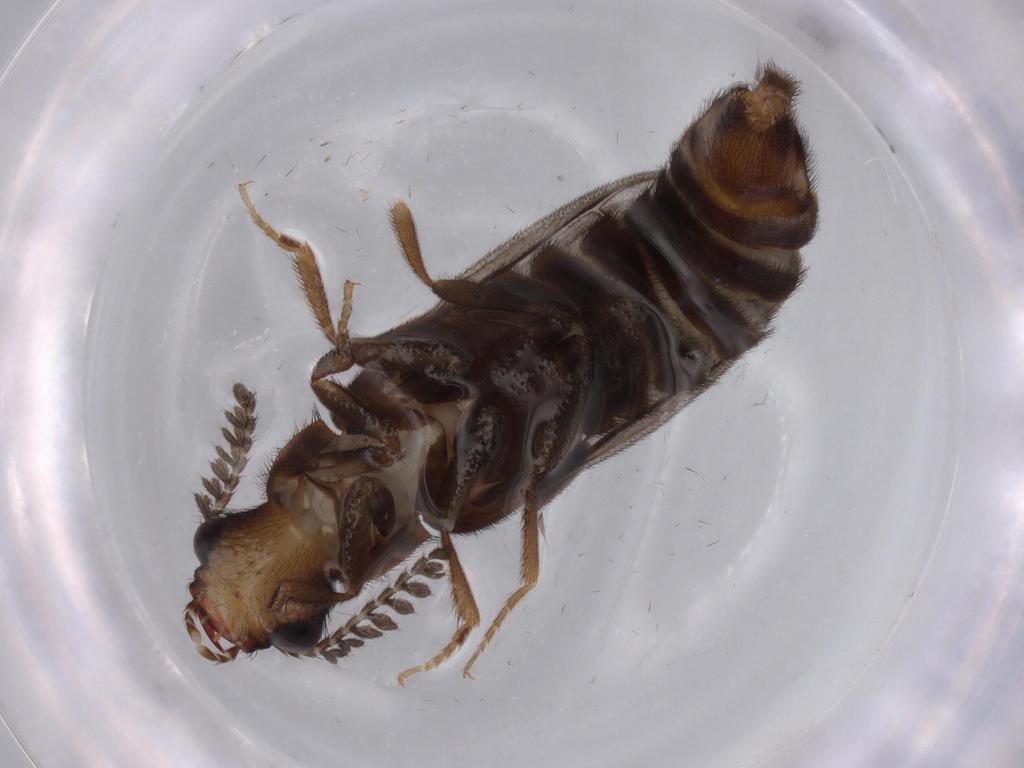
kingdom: Animalia
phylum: Arthropoda
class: Insecta
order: Coleoptera
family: Phengodidae
